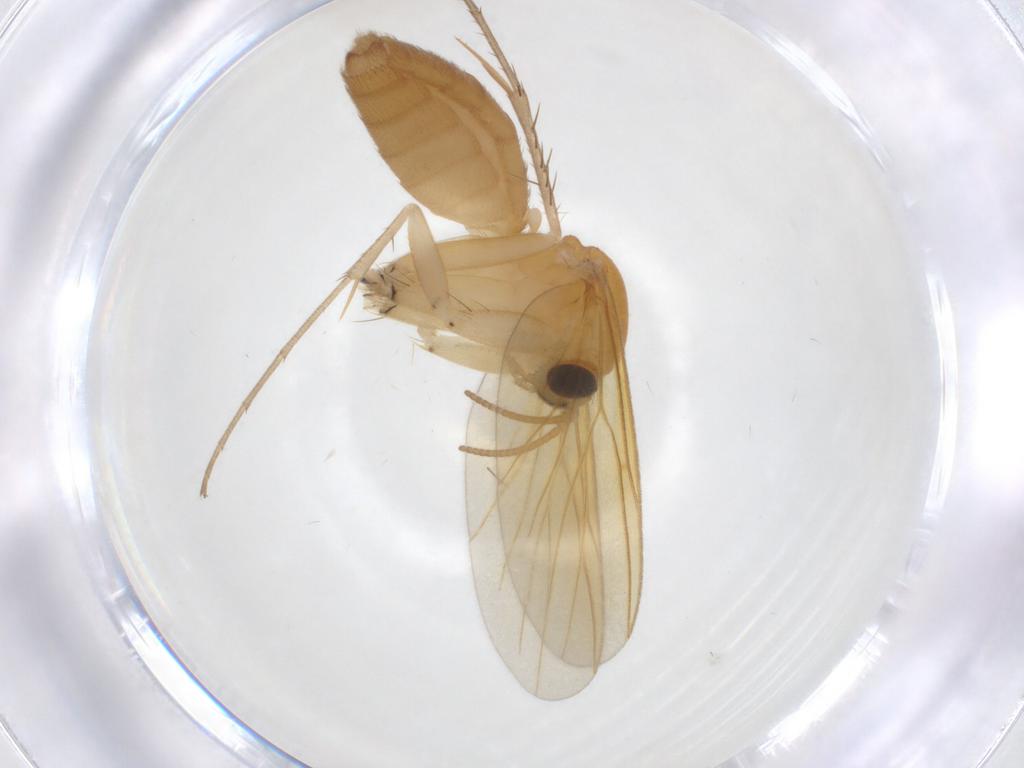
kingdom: Animalia
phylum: Arthropoda
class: Insecta
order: Diptera
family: Mycetophilidae
